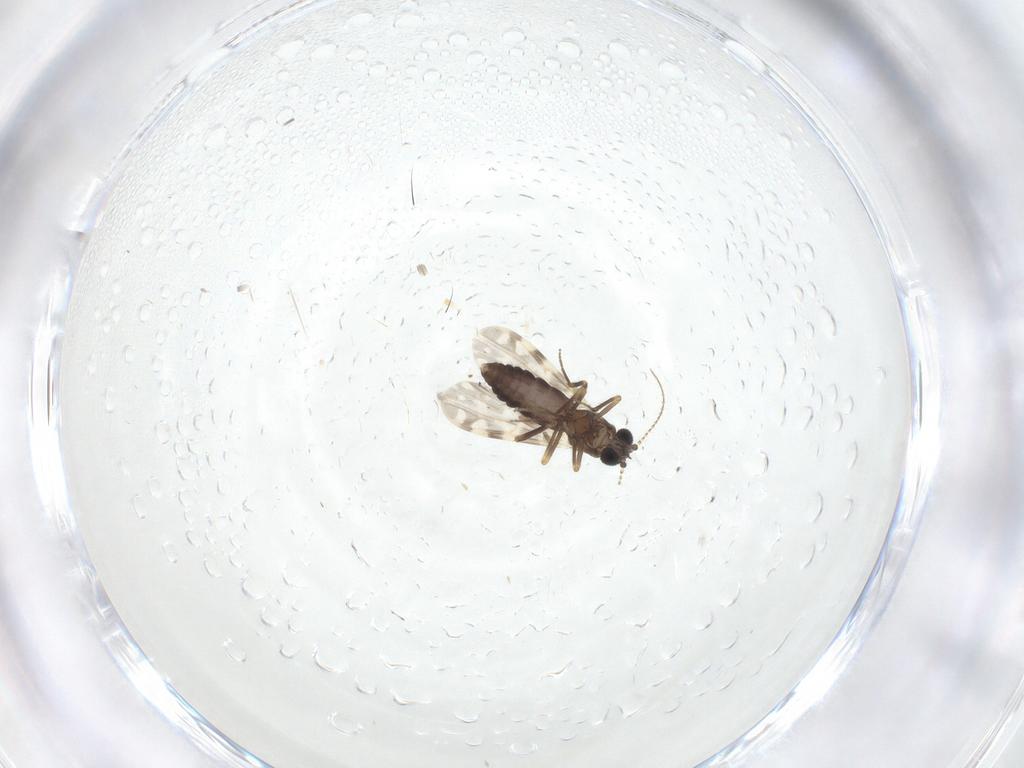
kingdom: Animalia
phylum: Arthropoda
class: Insecta
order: Diptera
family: Ceratopogonidae
